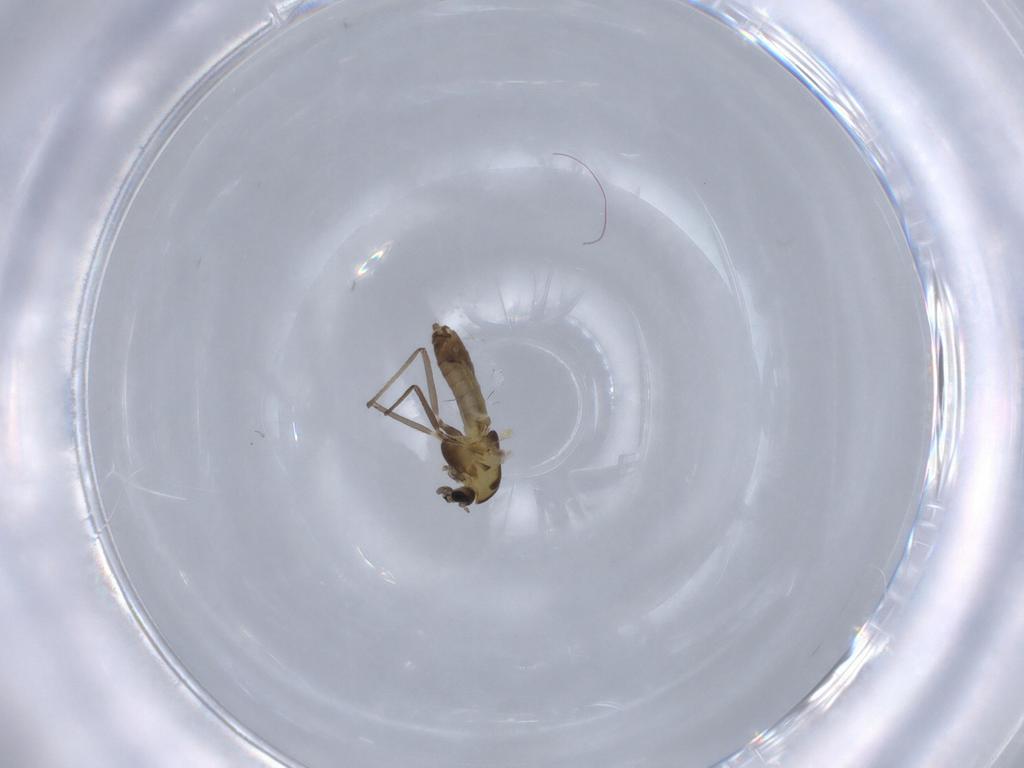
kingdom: Animalia
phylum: Arthropoda
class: Insecta
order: Diptera
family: Chironomidae
